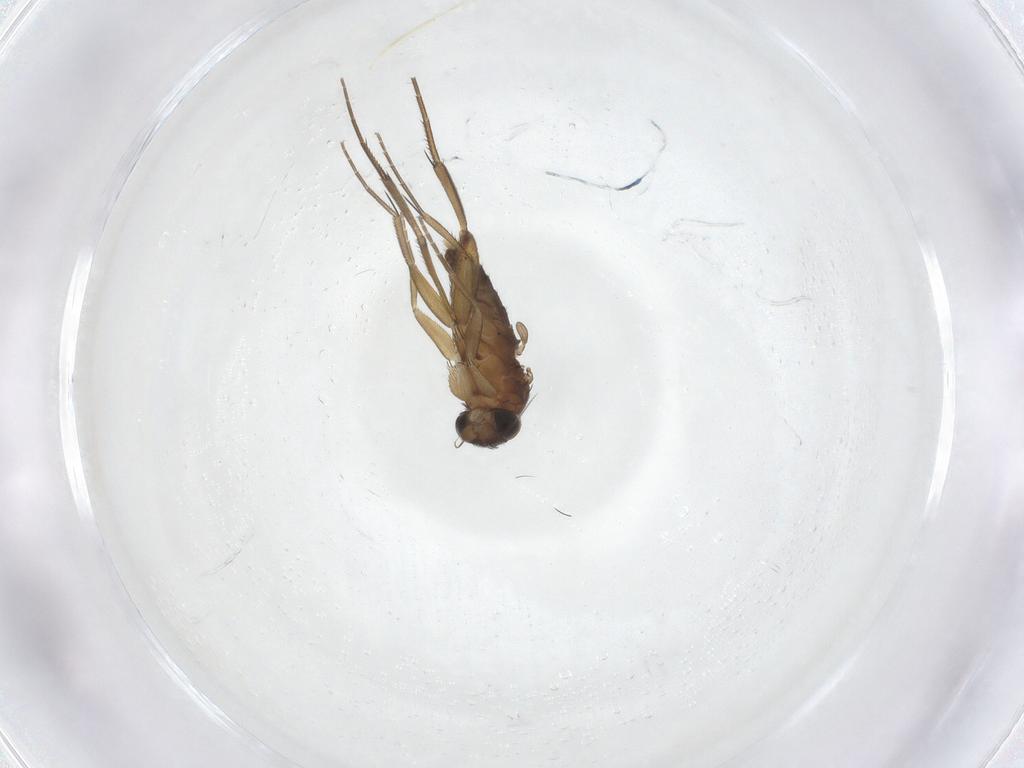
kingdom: Animalia
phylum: Arthropoda
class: Insecta
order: Diptera
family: Phoridae
